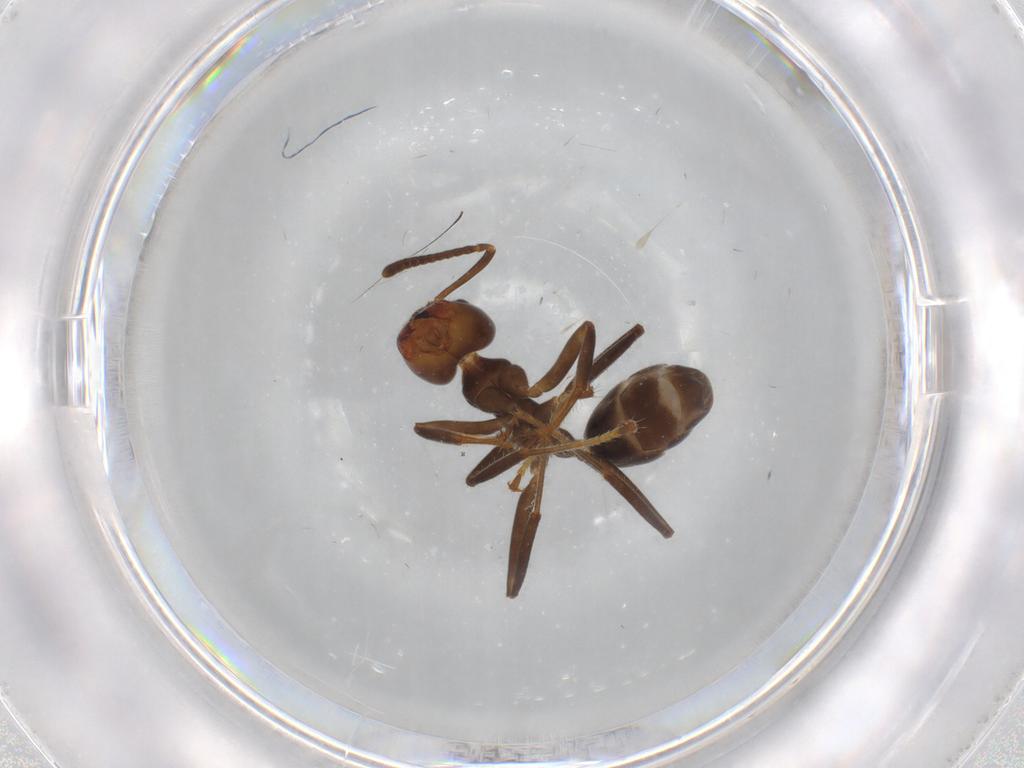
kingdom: Animalia
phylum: Arthropoda
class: Insecta
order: Hymenoptera
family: Formicidae
